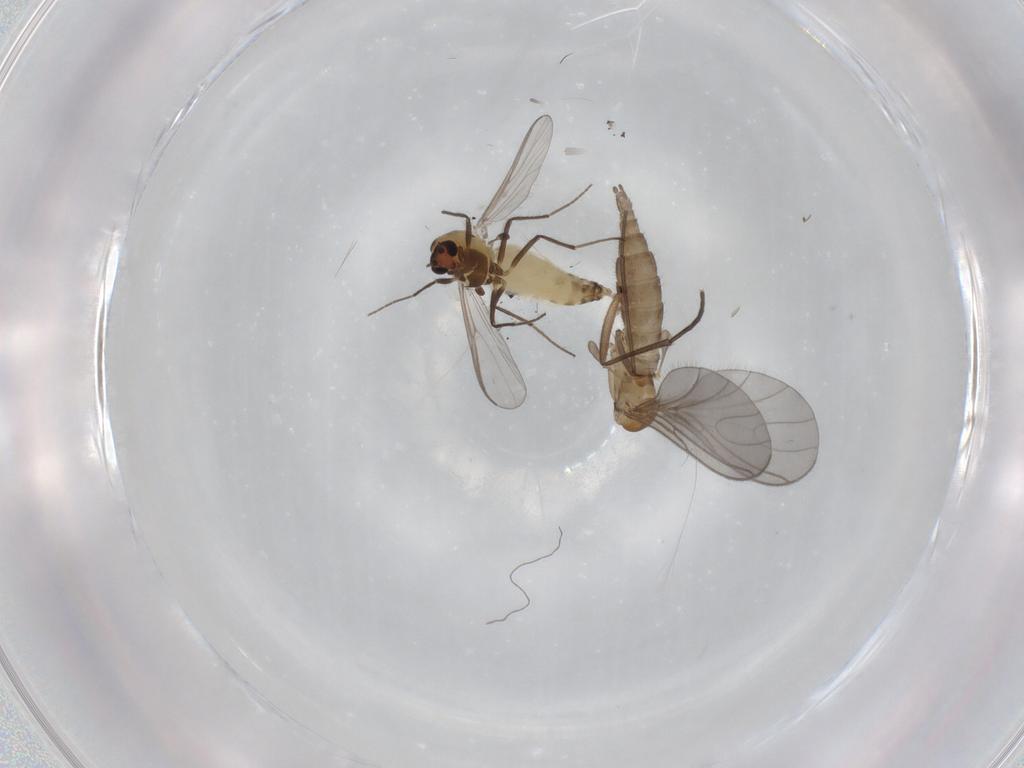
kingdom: Animalia
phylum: Arthropoda
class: Insecta
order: Diptera
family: Chironomidae
